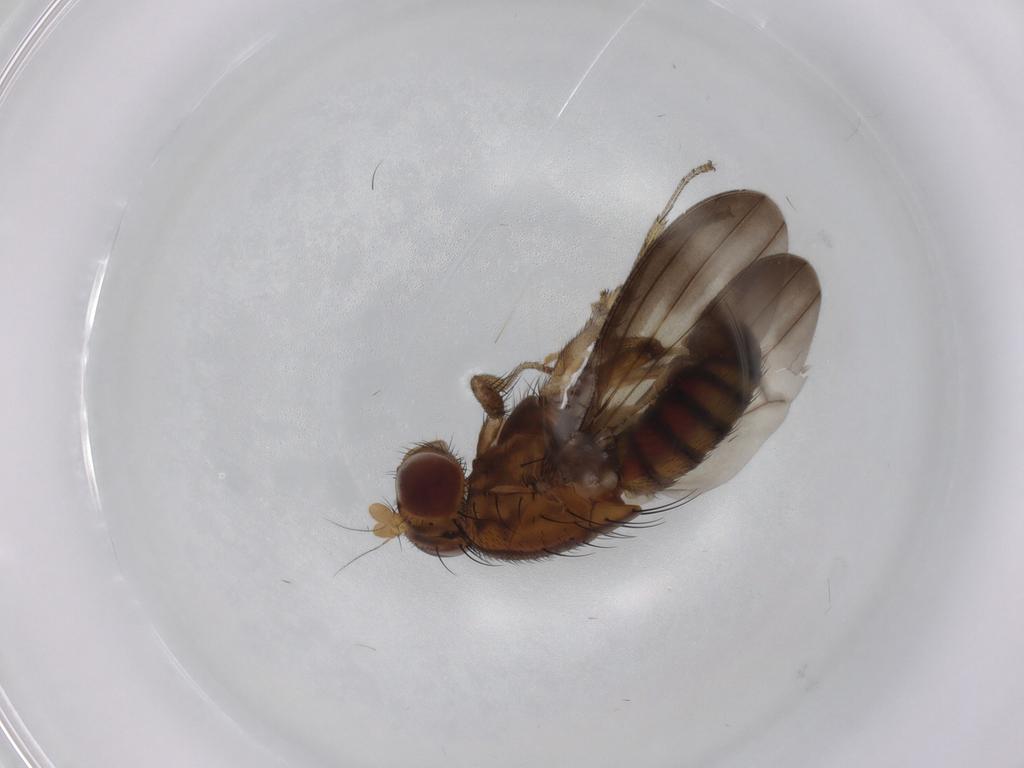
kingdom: Animalia
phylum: Arthropoda
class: Insecta
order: Diptera
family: Lauxaniidae
